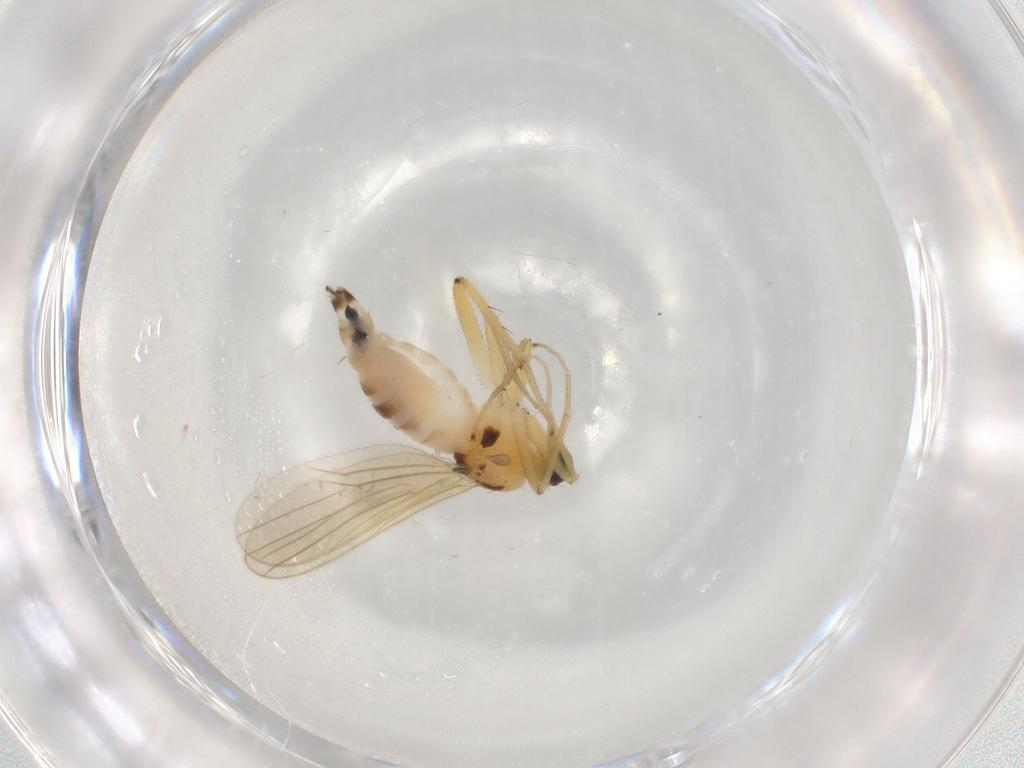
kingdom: Animalia
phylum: Arthropoda
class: Insecta
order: Diptera
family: Hybotidae
